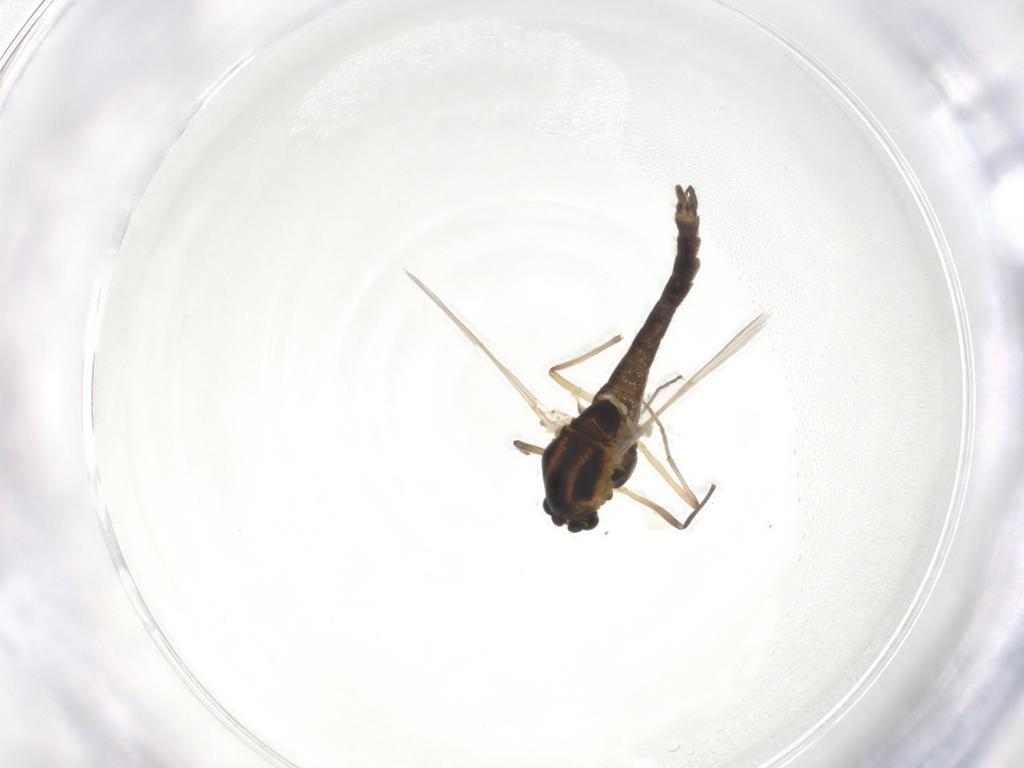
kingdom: Animalia
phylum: Arthropoda
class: Insecta
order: Diptera
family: Chironomidae
